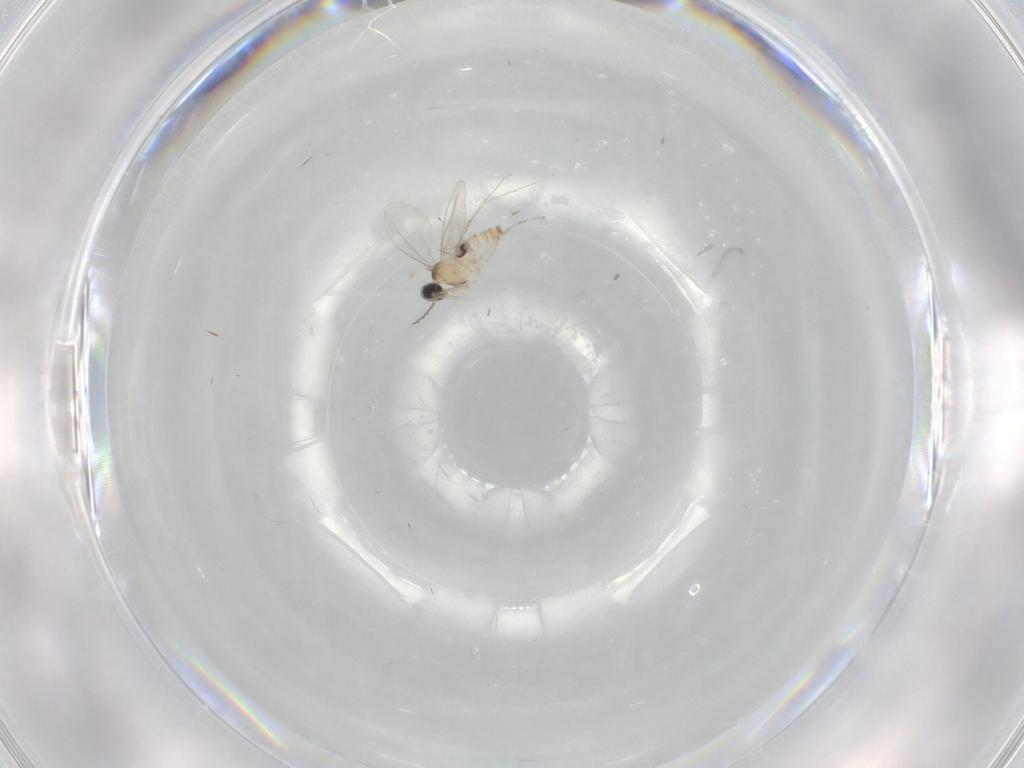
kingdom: Animalia
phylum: Arthropoda
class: Insecta
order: Diptera
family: Cecidomyiidae
